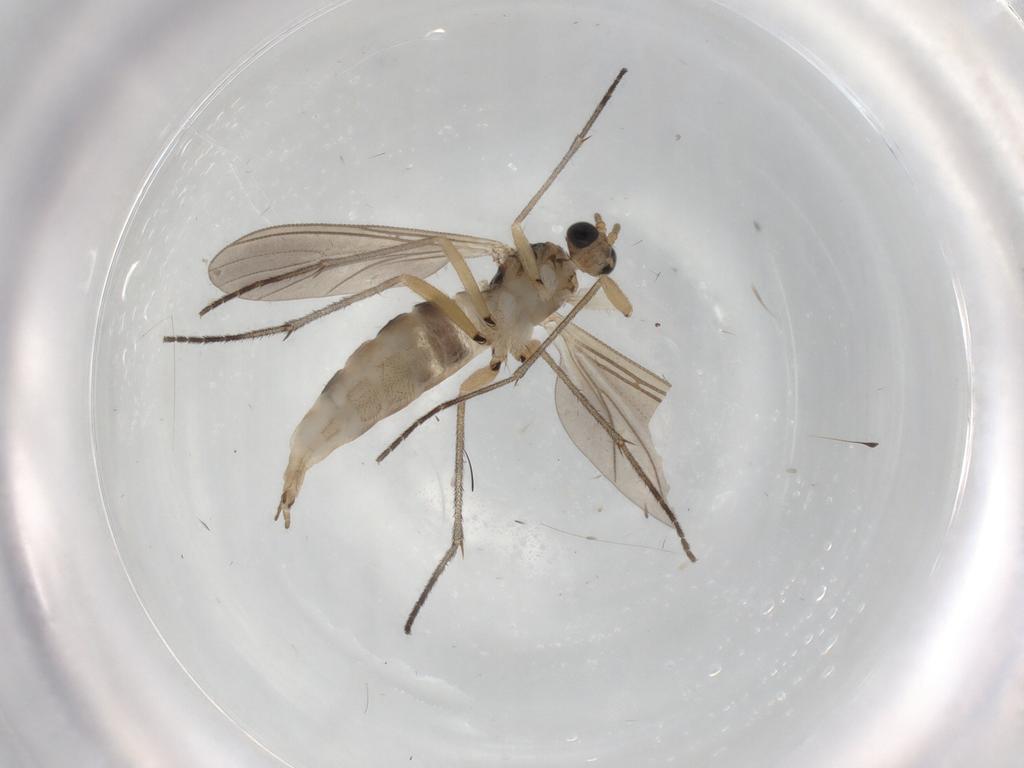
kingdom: Animalia
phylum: Arthropoda
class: Insecta
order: Diptera
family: Sciaridae
